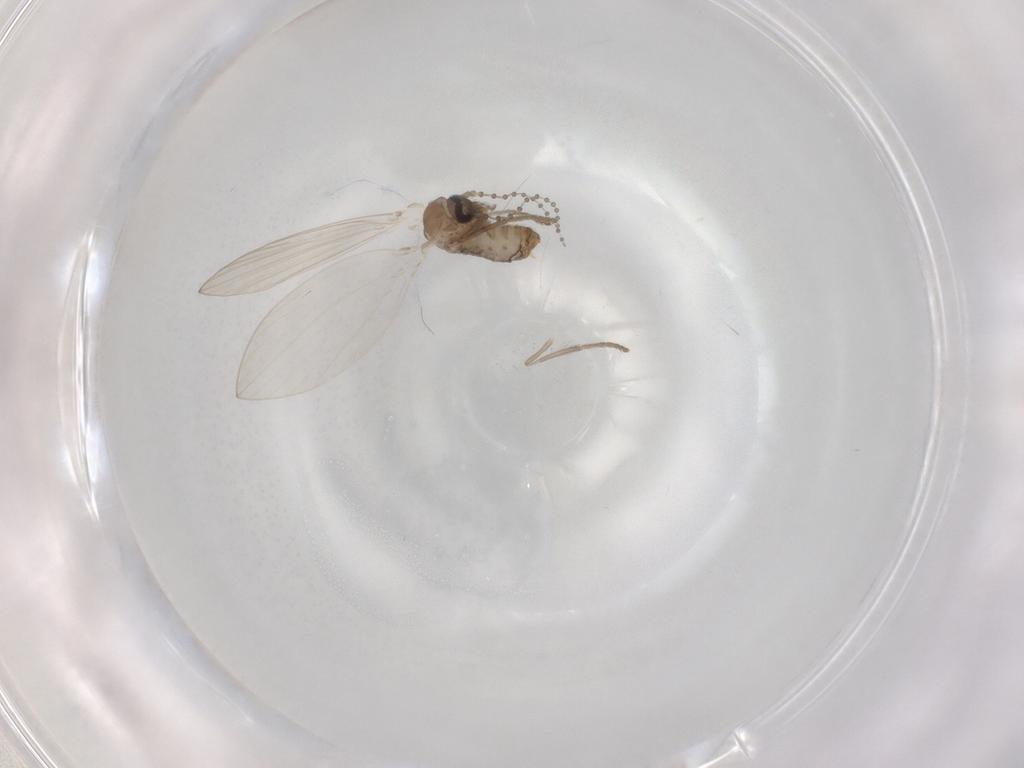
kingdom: Animalia
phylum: Arthropoda
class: Insecta
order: Diptera
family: Psychodidae
